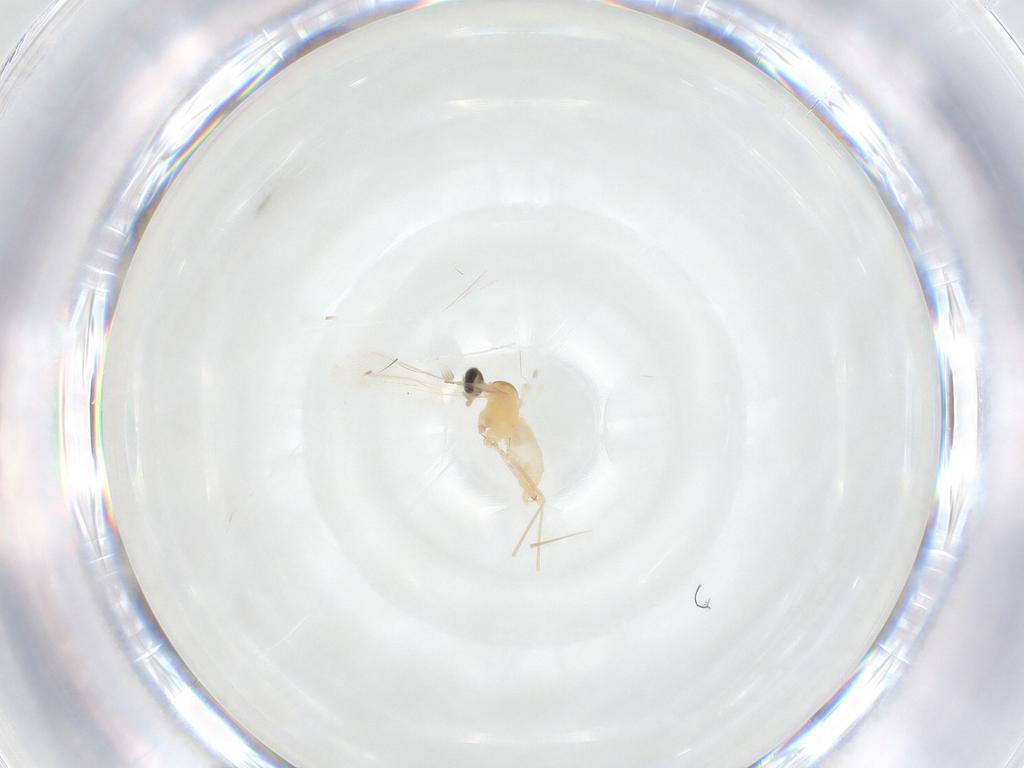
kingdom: Animalia
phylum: Arthropoda
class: Insecta
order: Diptera
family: Cecidomyiidae
